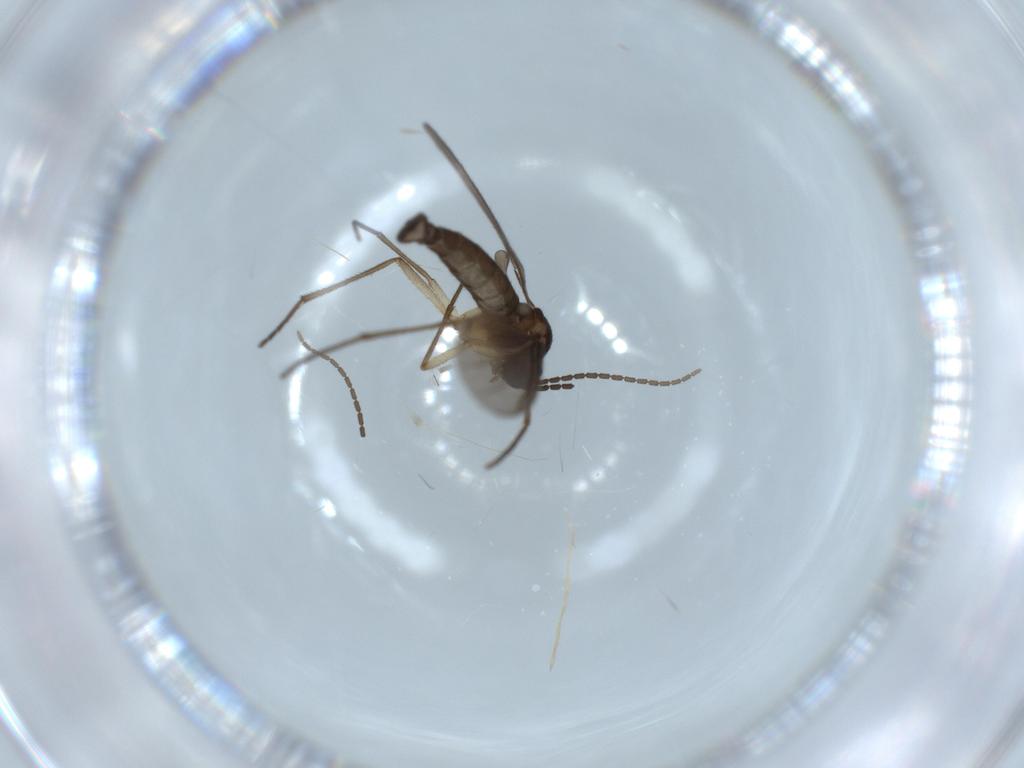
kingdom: Animalia
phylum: Arthropoda
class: Insecta
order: Diptera
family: Sciaridae
